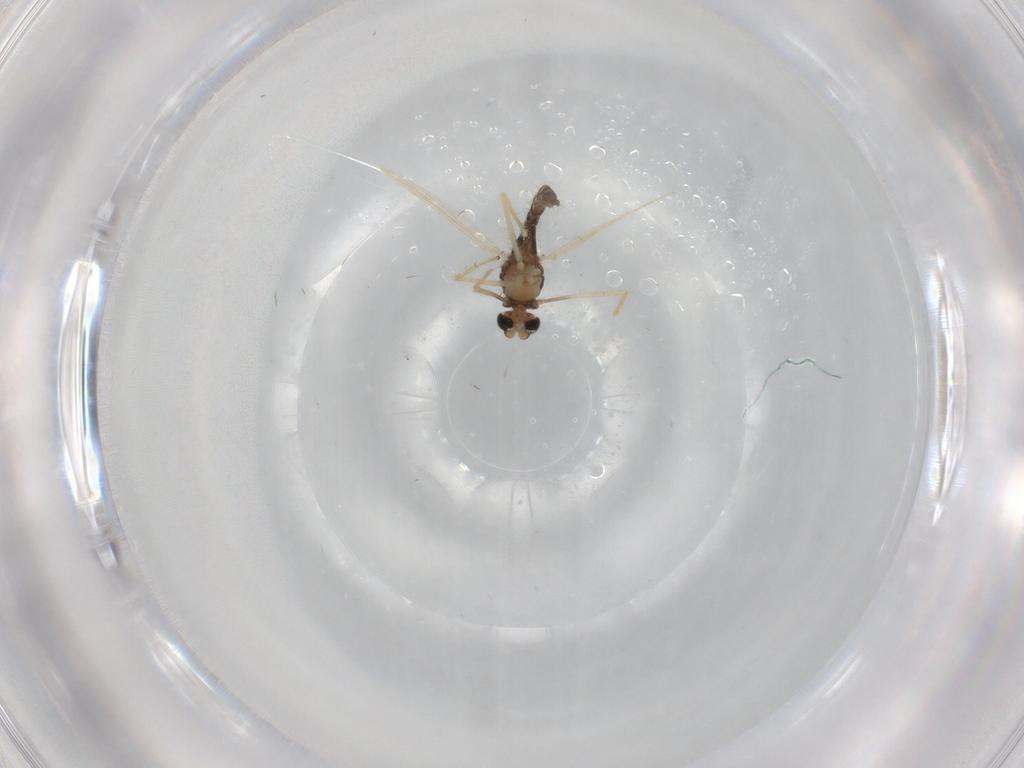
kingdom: Animalia
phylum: Arthropoda
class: Insecta
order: Diptera
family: Chironomidae
